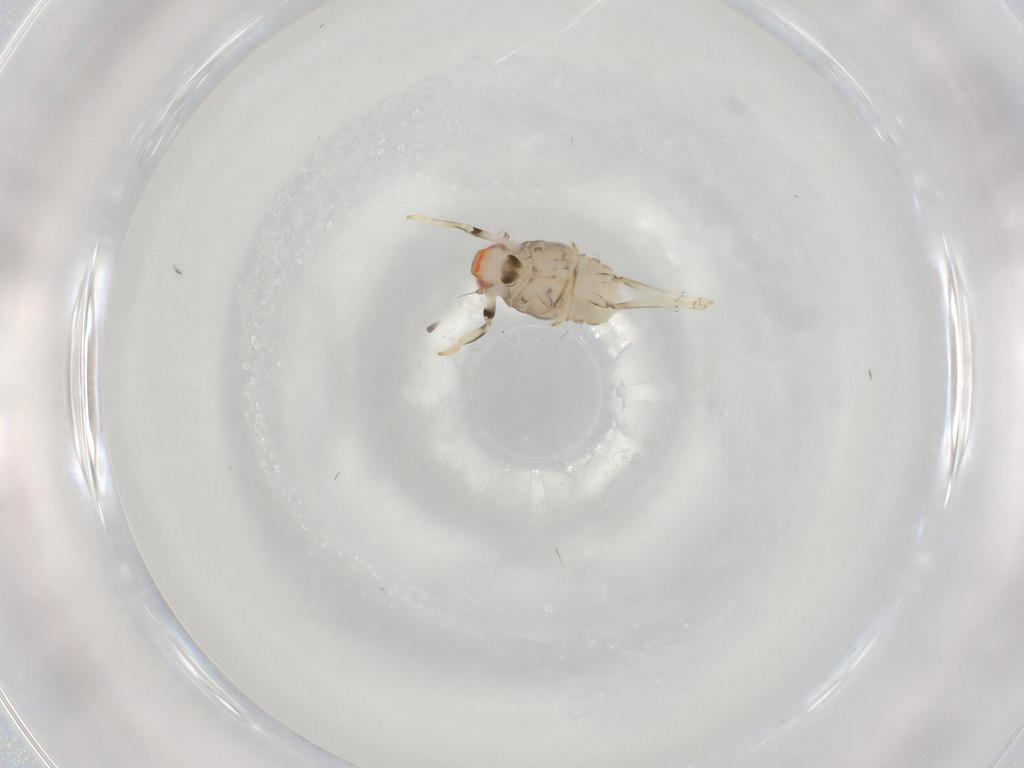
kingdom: Animalia
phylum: Arthropoda
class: Insecta
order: Hemiptera
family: Issidae
